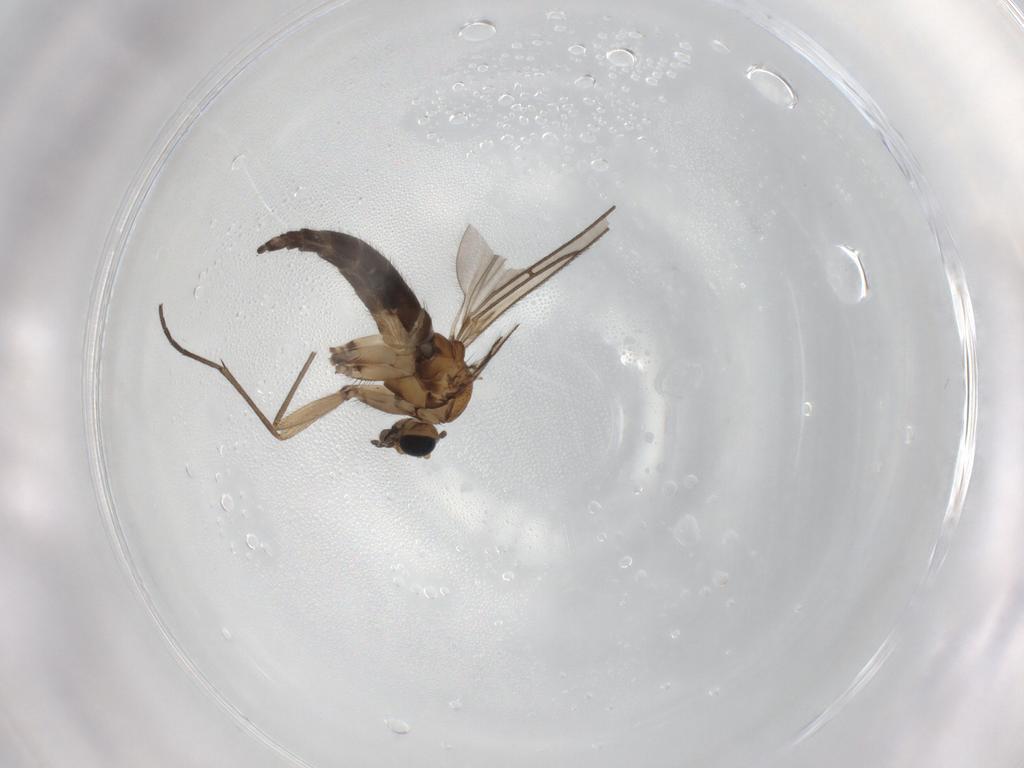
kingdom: Animalia
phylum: Arthropoda
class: Insecta
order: Diptera
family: Sciaridae
